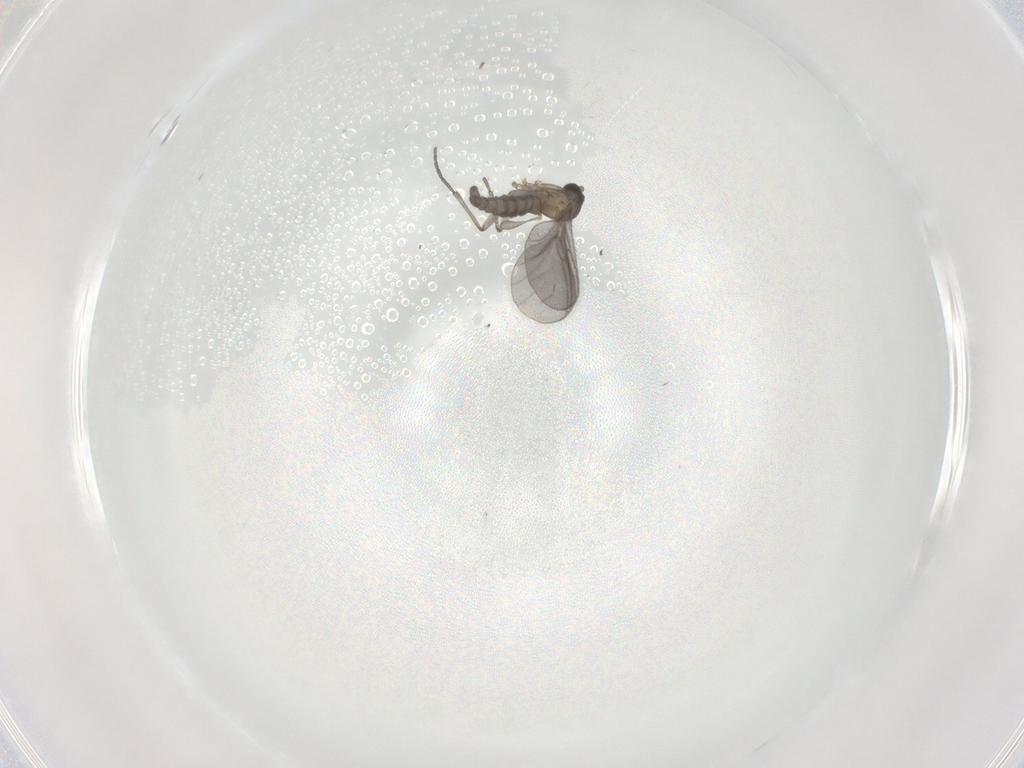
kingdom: Animalia
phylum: Arthropoda
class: Insecta
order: Diptera
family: Sciaridae
